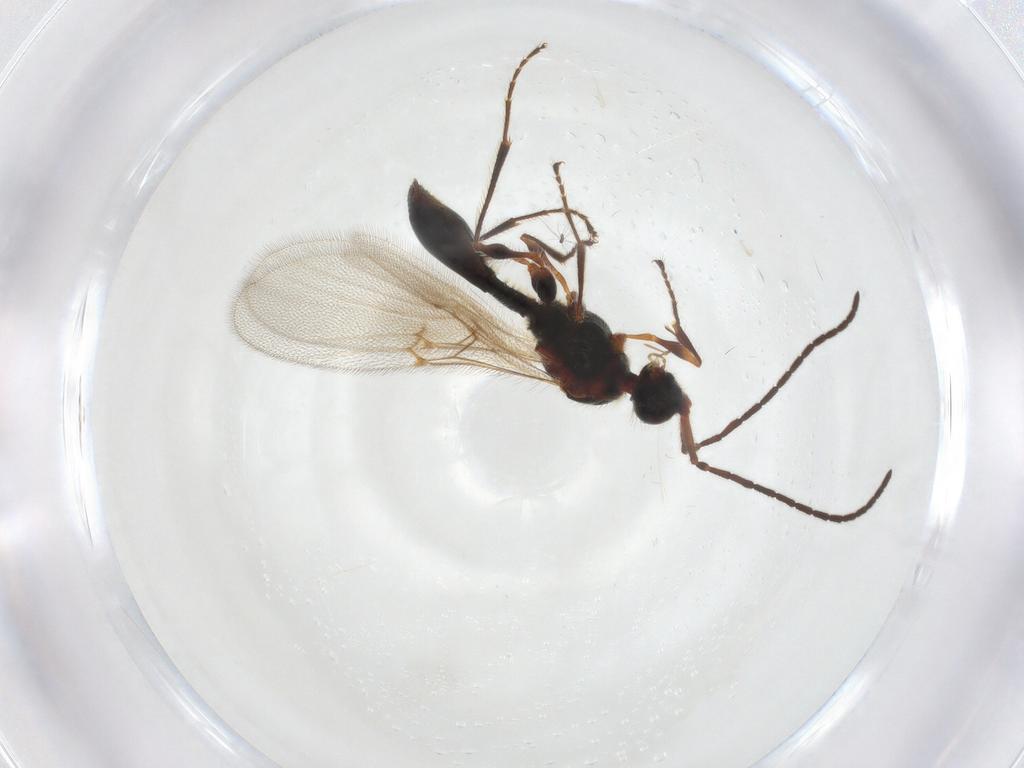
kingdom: Animalia
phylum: Arthropoda
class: Insecta
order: Hymenoptera
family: Diapriidae
